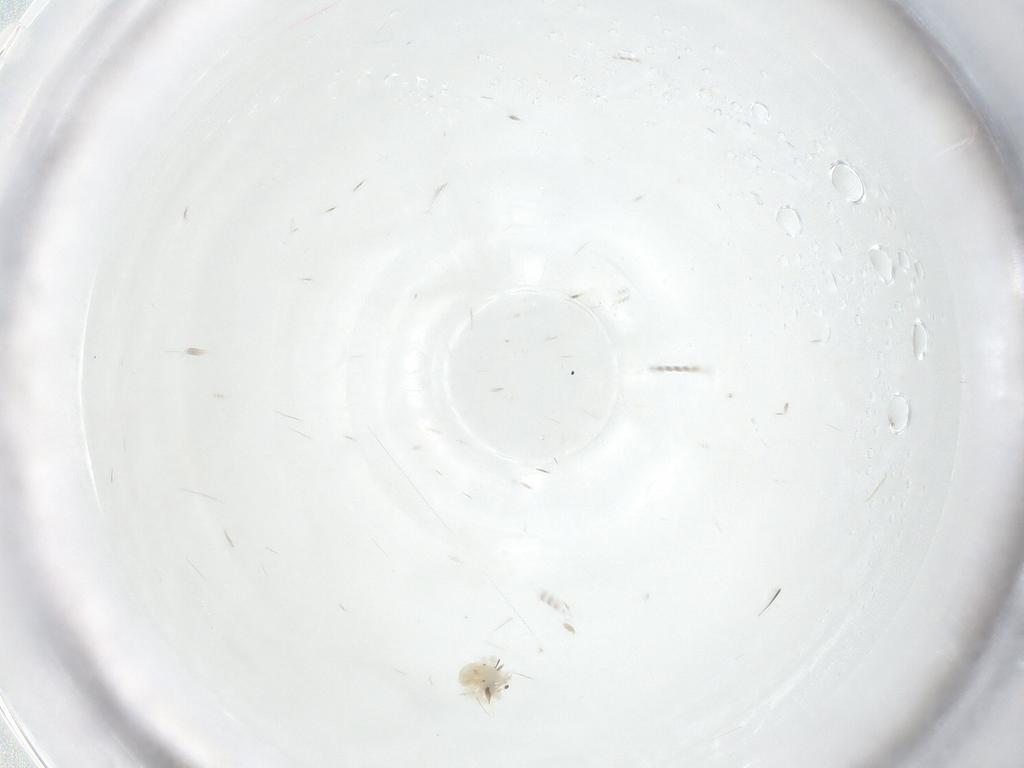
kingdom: Animalia
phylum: Arthropoda
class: Arachnida
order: Trombidiformes
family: Anystidae
